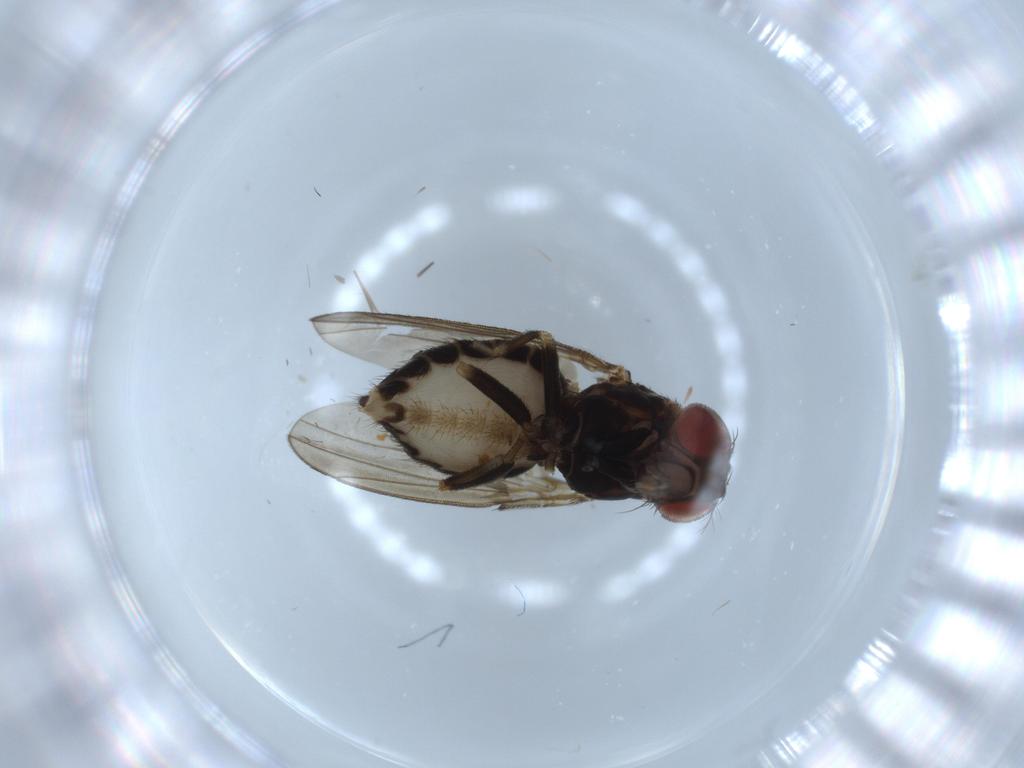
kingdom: Animalia
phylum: Arthropoda
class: Insecta
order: Diptera
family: Drosophilidae
